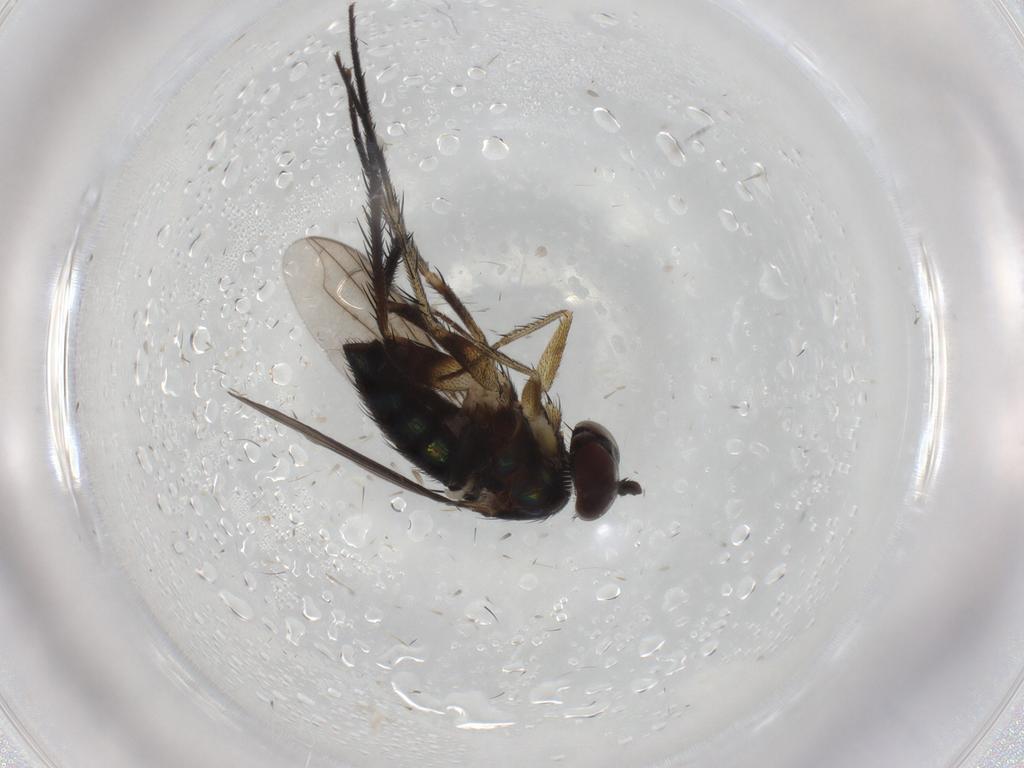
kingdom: Animalia
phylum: Arthropoda
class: Insecta
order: Diptera
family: Dolichopodidae
